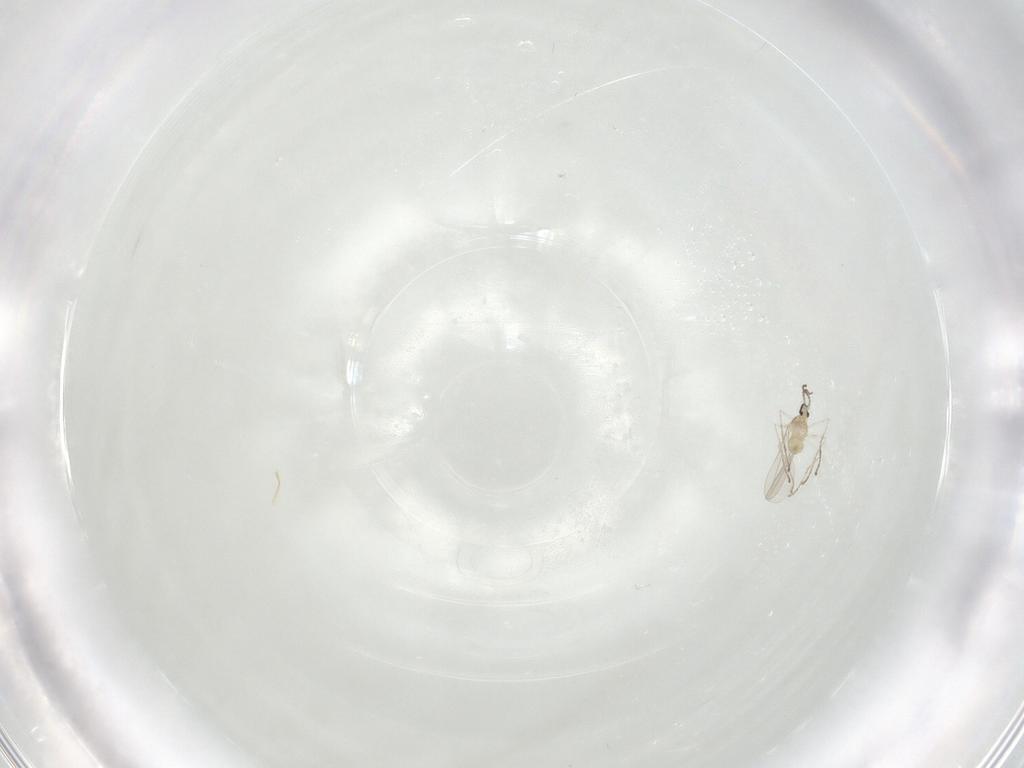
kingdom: Animalia
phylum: Arthropoda
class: Insecta
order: Diptera
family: Cecidomyiidae
